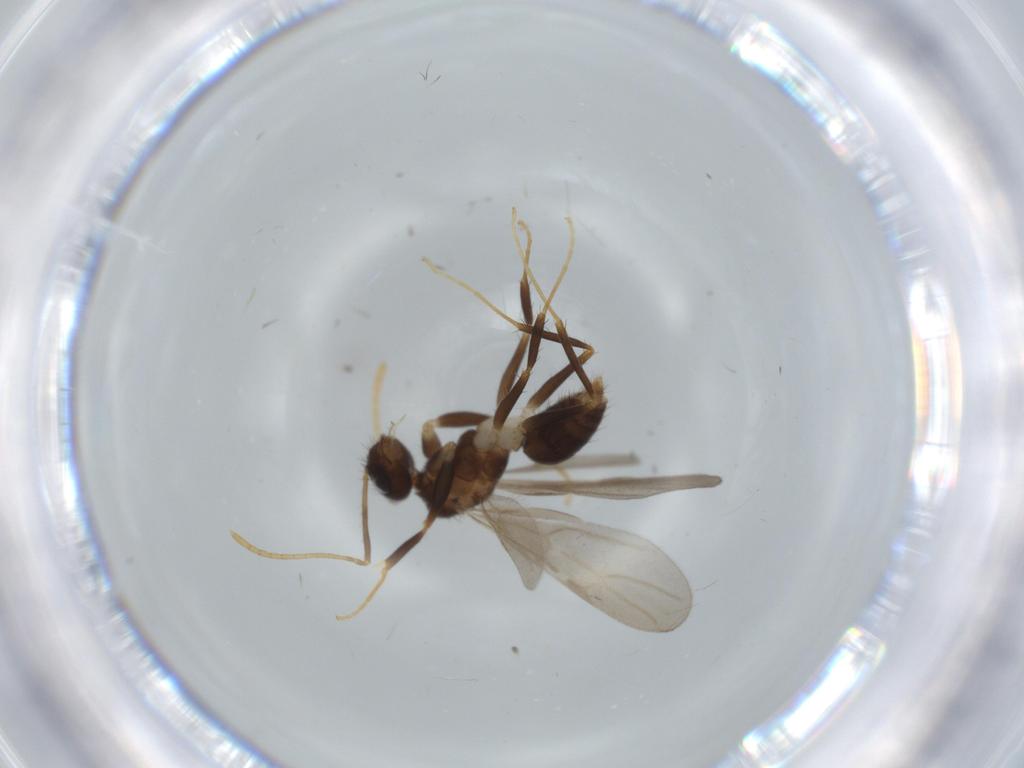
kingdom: Animalia
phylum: Arthropoda
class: Insecta
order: Hymenoptera
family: Formicidae
